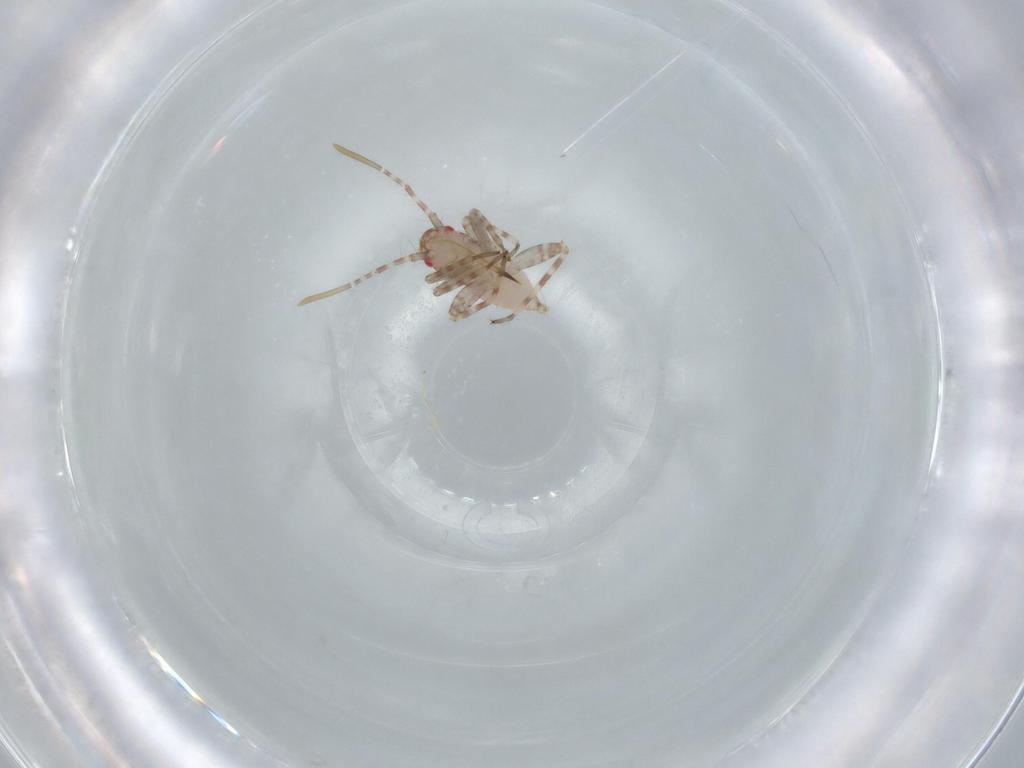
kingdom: Animalia
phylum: Arthropoda
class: Insecta
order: Hemiptera
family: Miridae
